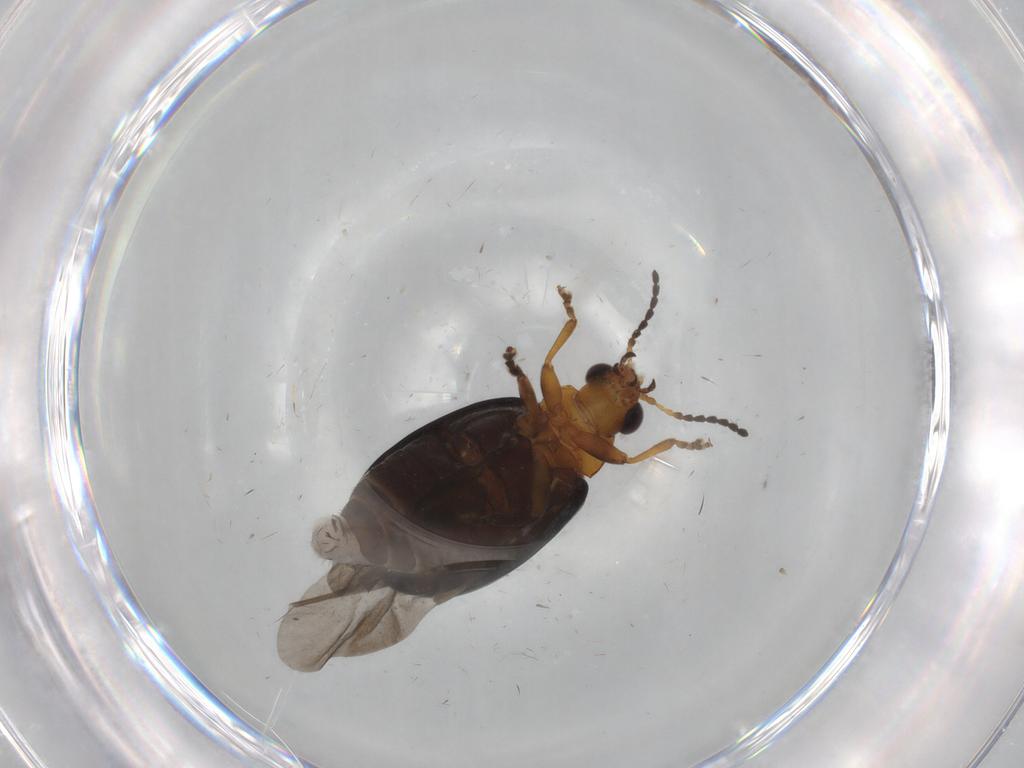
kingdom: Animalia
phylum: Arthropoda
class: Insecta
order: Coleoptera
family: Chrysomelidae
